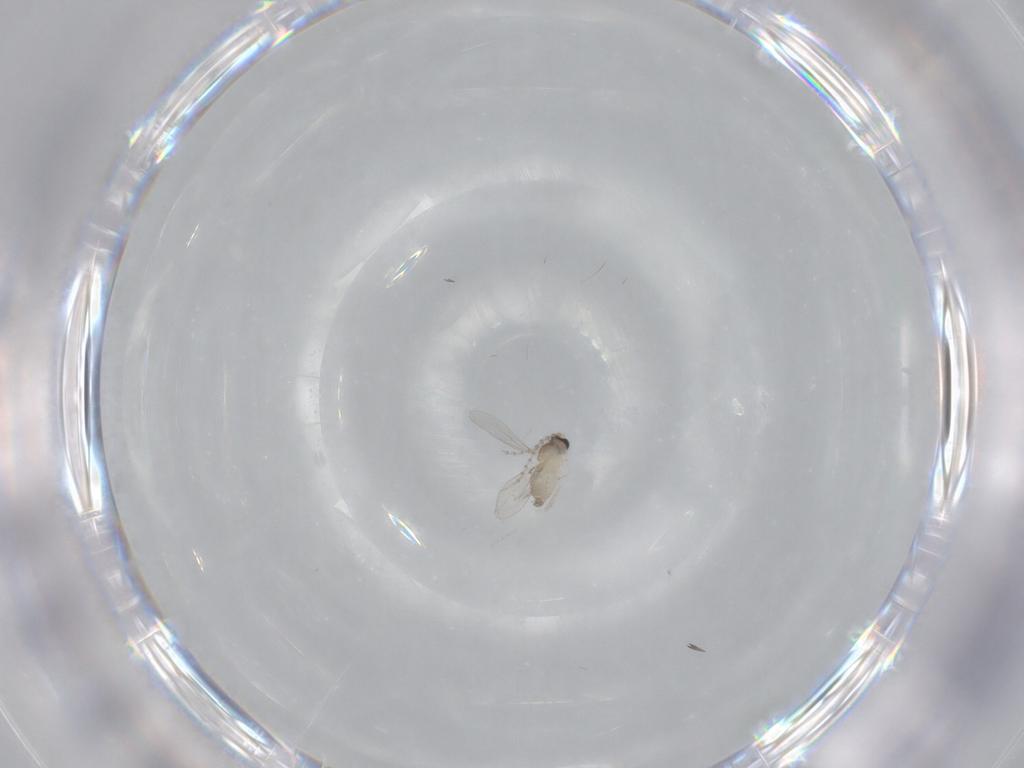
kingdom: Animalia
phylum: Arthropoda
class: Insecta
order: Diptera
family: Cecidomyiidae
